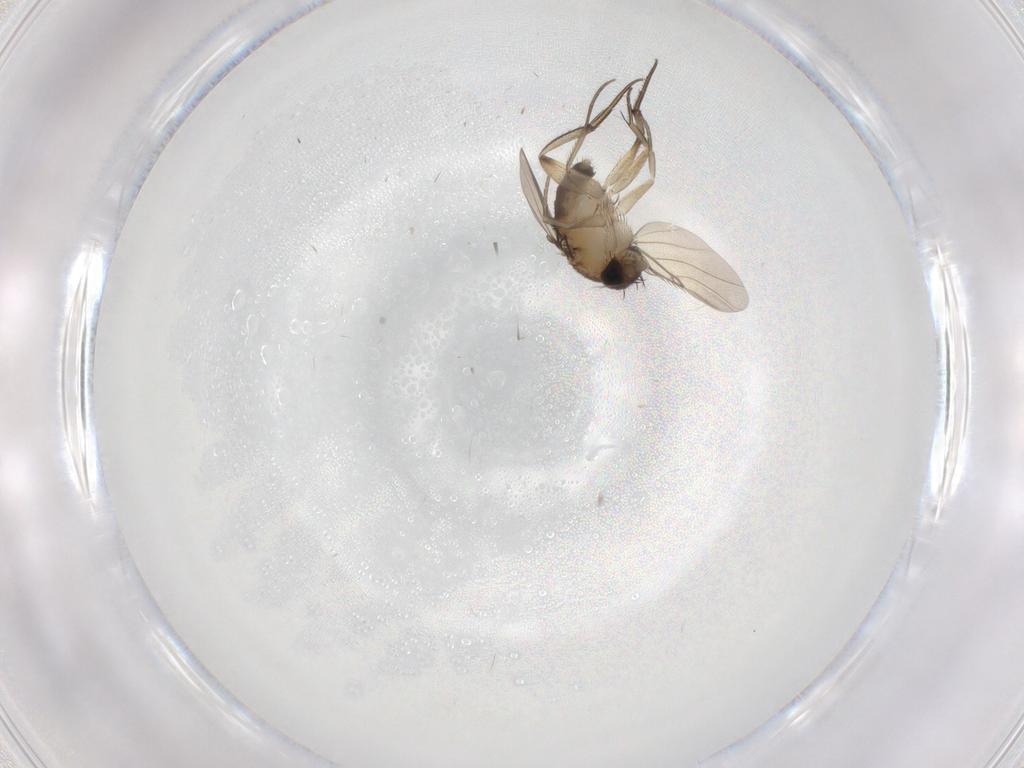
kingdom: Animalia
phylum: Arthropoda
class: Insecta
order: Diptera
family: Phoridae
